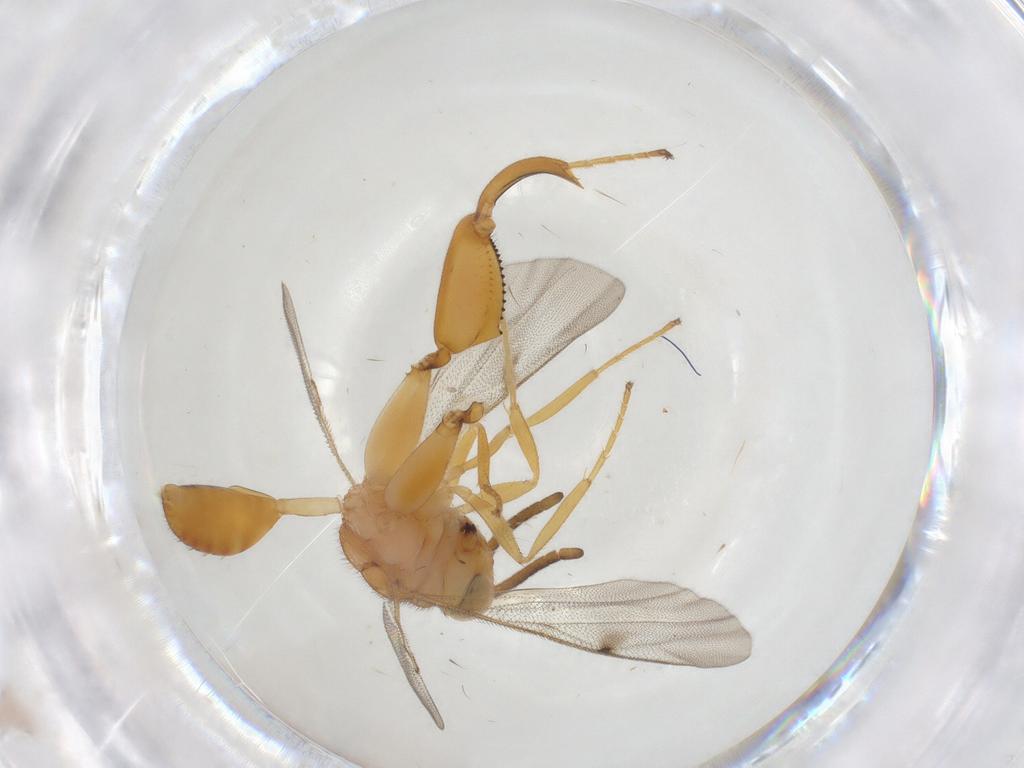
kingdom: Animalia
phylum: Arthropoda
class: Insecta
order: Hymenoptera
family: Chalcididae
